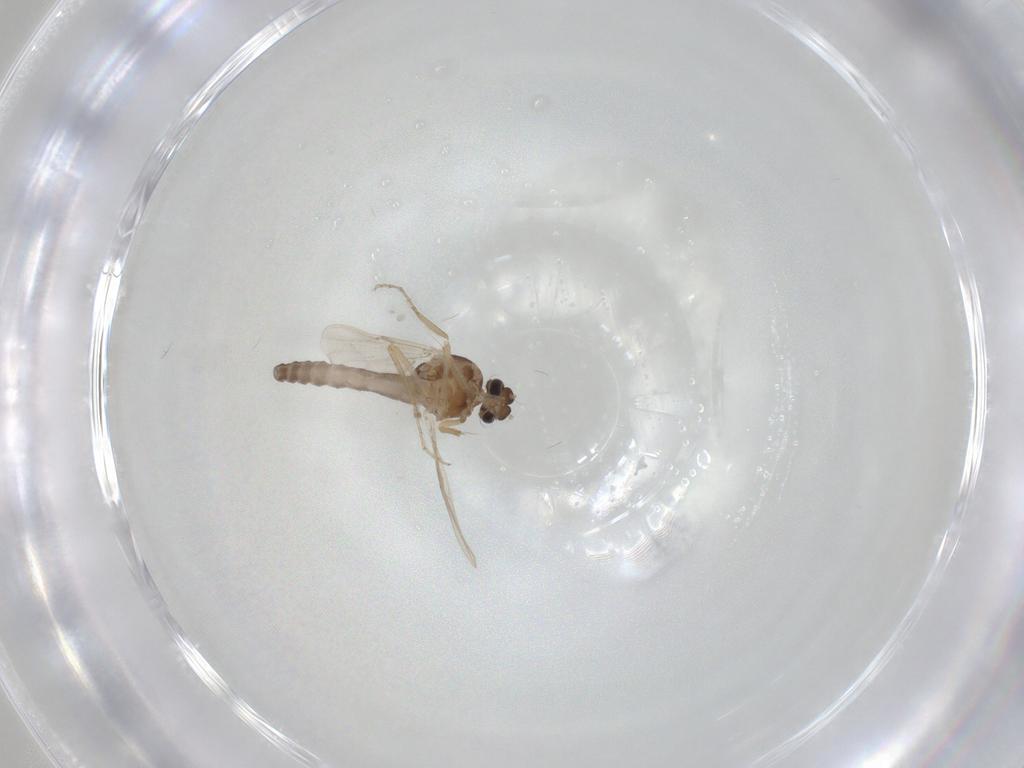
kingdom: Animalia
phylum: Arthropoda
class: Insecta
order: Diptera
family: Ceratopogonidae
